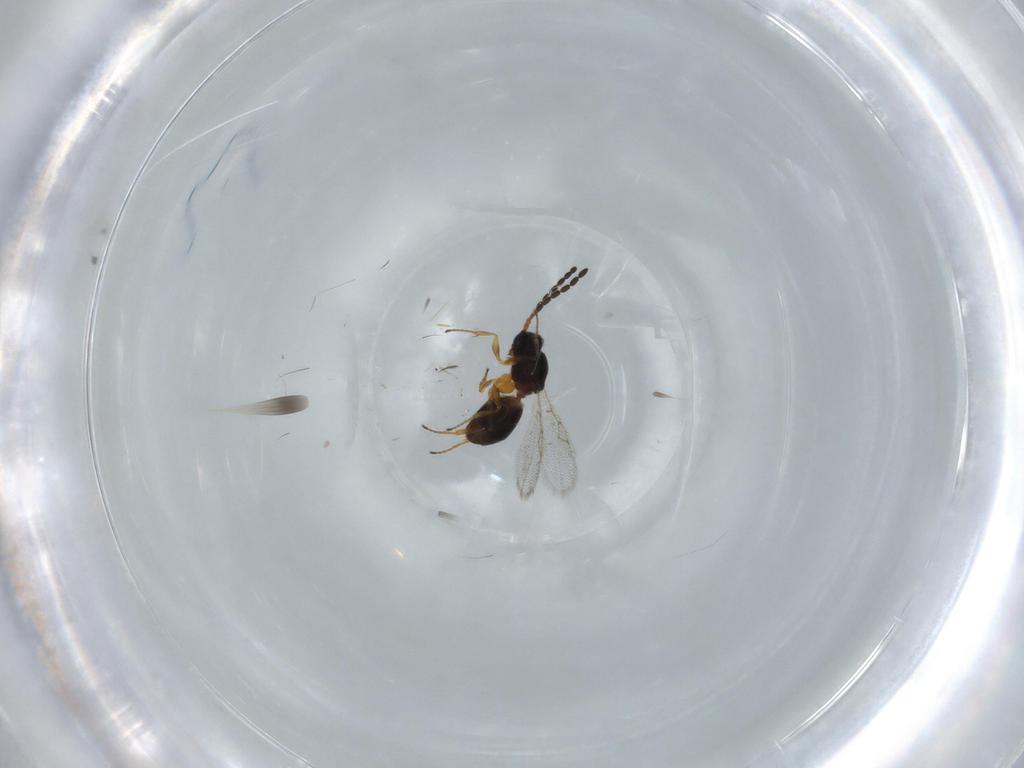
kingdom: Animalia
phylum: Arthropoda
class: Insecta
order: Hymenoptera
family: Figitidae
